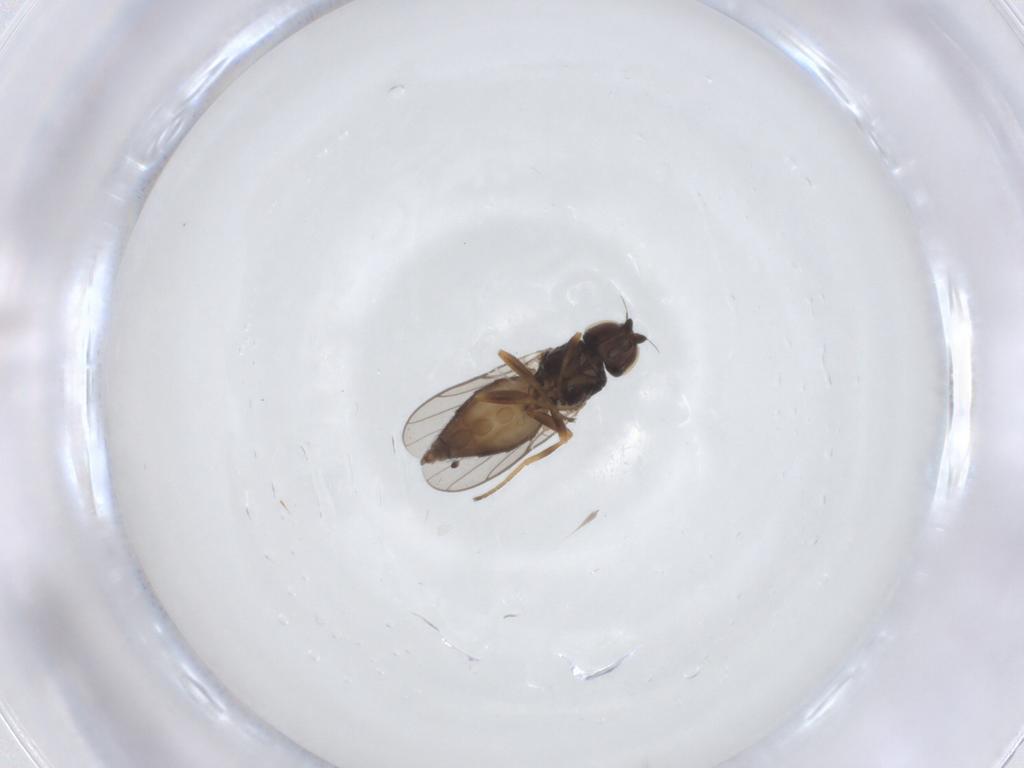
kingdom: Animalia
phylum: Arthropoda
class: Insecta
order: Diptera
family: Chloropidae
